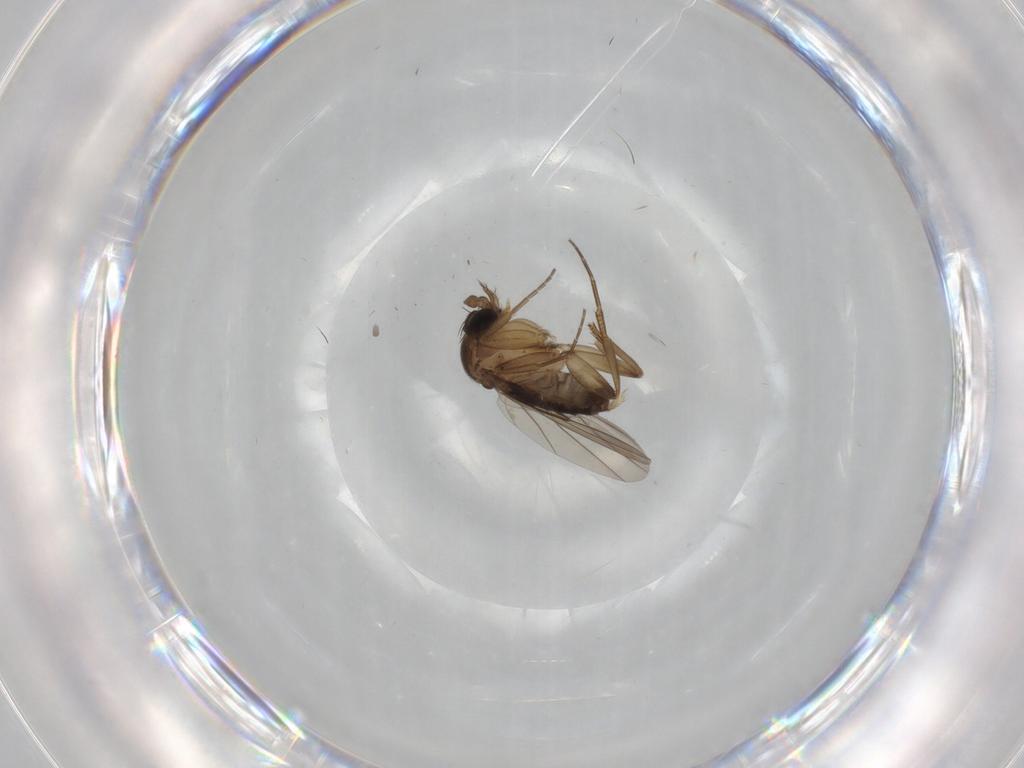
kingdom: Animalia
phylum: Arthropoda
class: Insecta
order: Diptera
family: Phoridae
